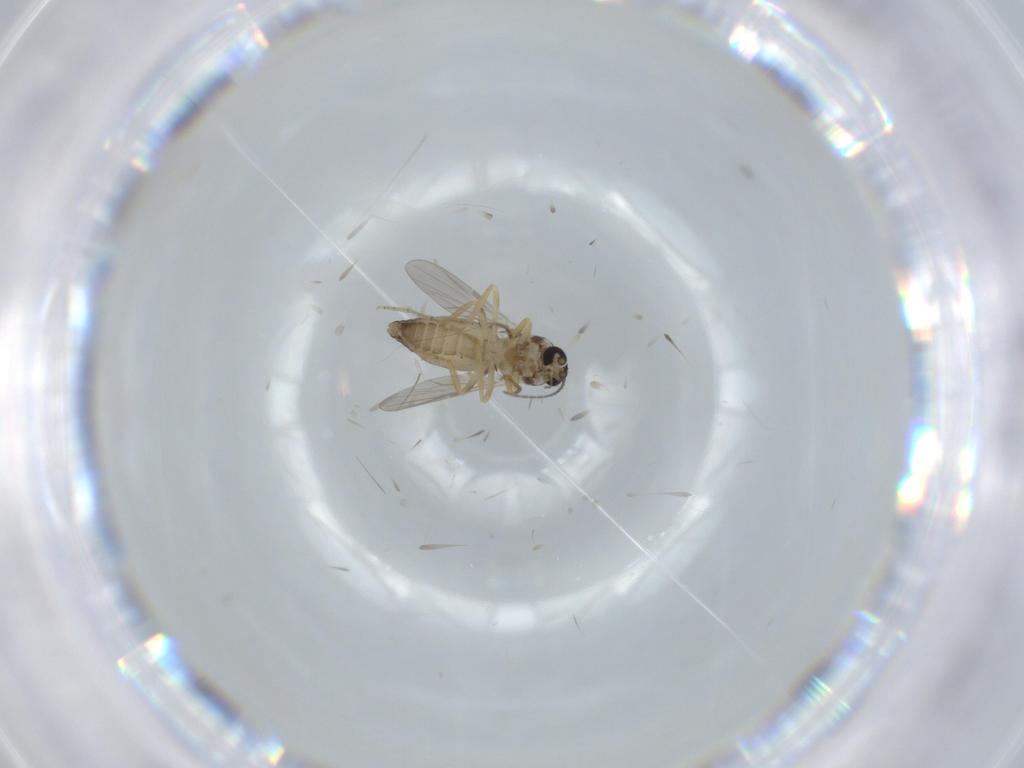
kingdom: Animalia
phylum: Arthropoda
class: Insecta
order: Diptera
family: Ceratopogonidae
